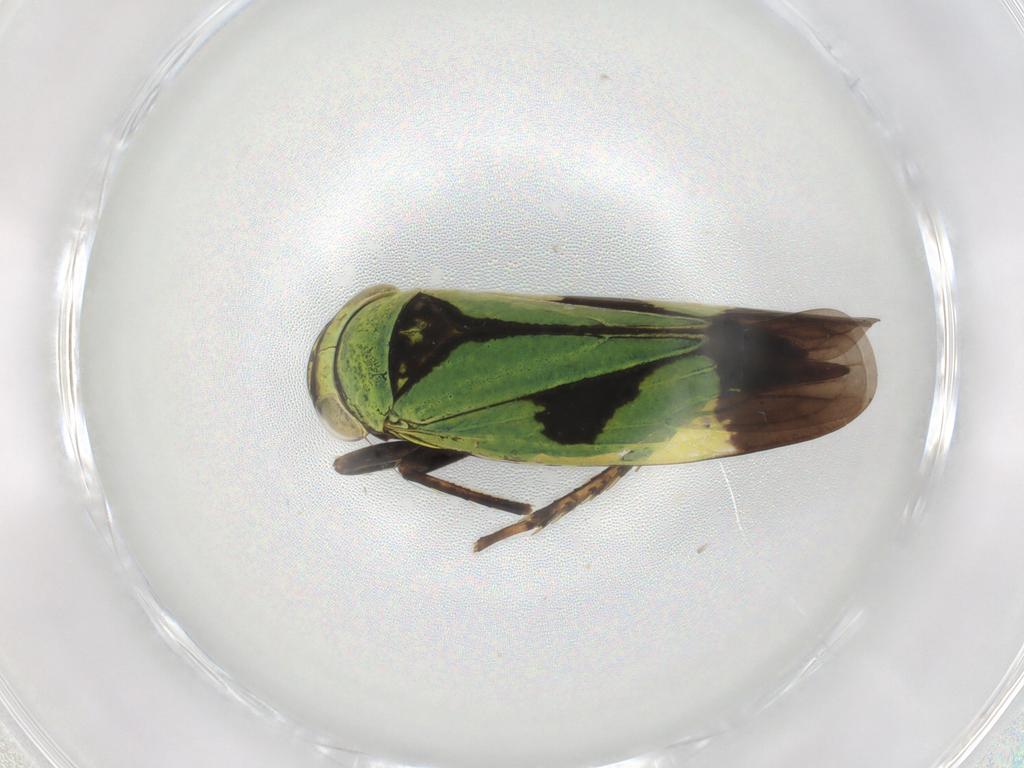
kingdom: Animalia
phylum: Arthropoda
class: Insecta
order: Hemiptera
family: Cicadellidae
